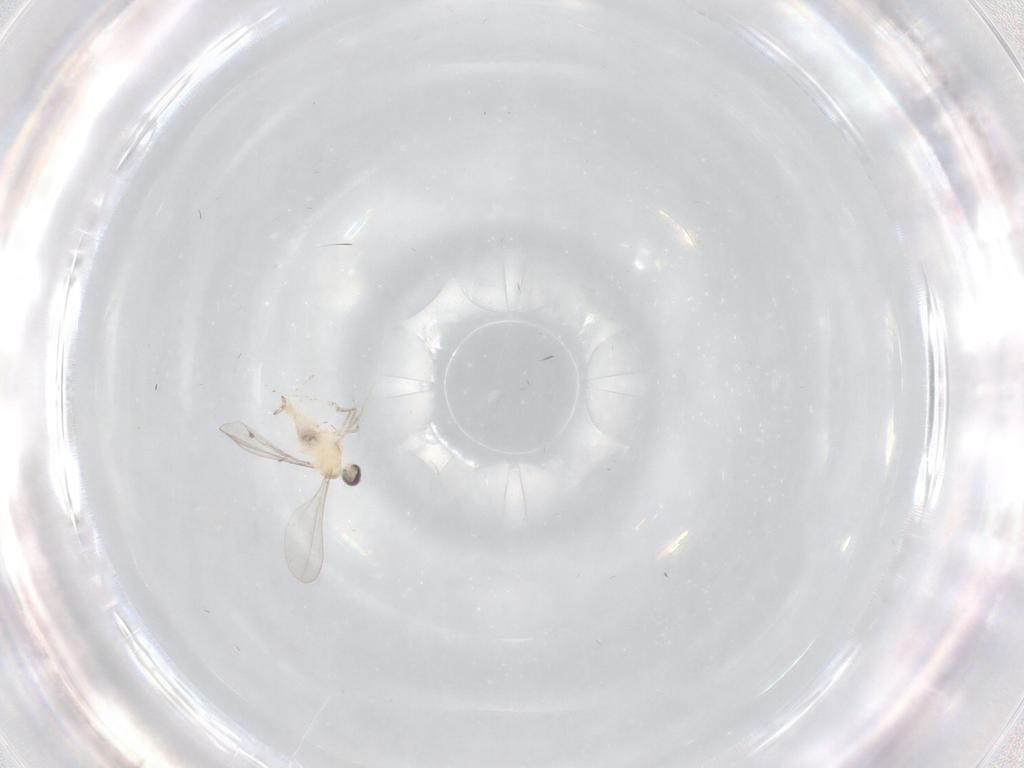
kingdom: Animalia
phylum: Arthropoda
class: Insecta
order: Diptera
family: Cecidomyiidae
